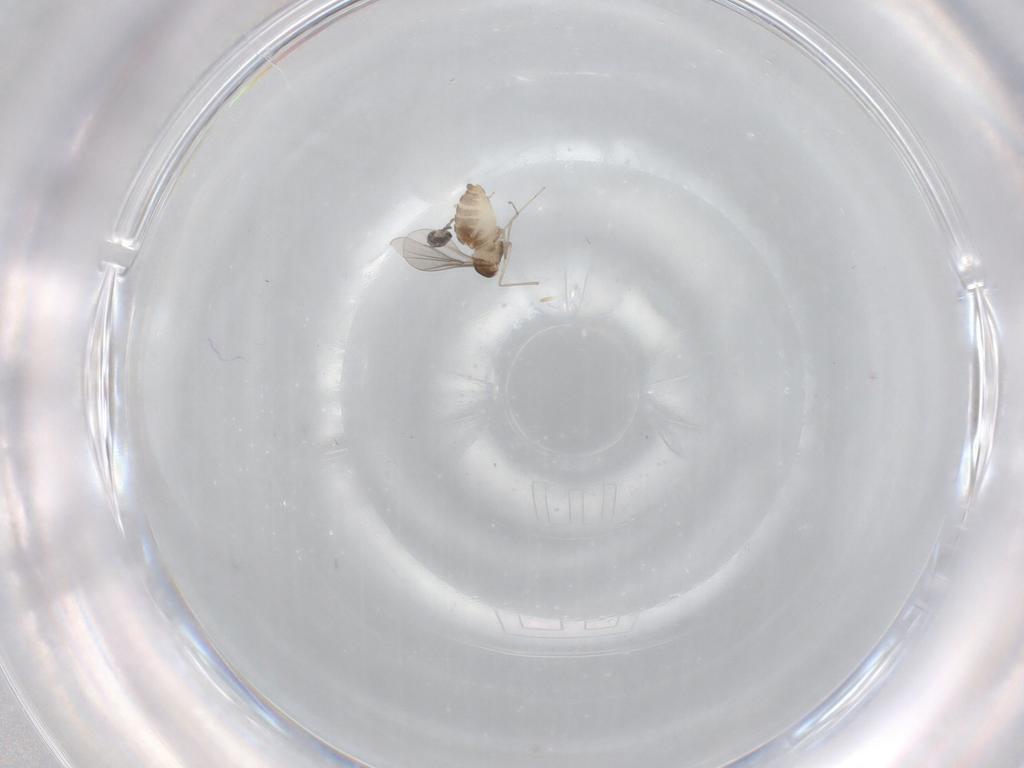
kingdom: Animalia
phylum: Arthropoda
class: Insecta
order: Diptera
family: Cecidomyiidae
